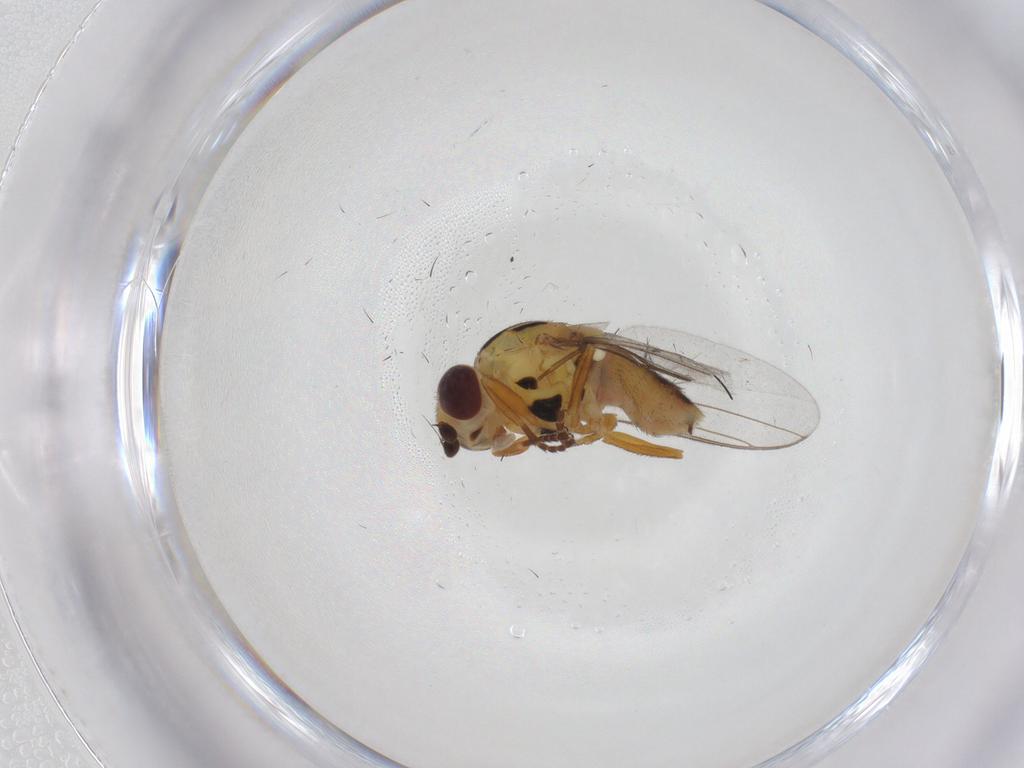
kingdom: Animalia
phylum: Arthropoda
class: Insecta
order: Diptera
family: Chloropidae
